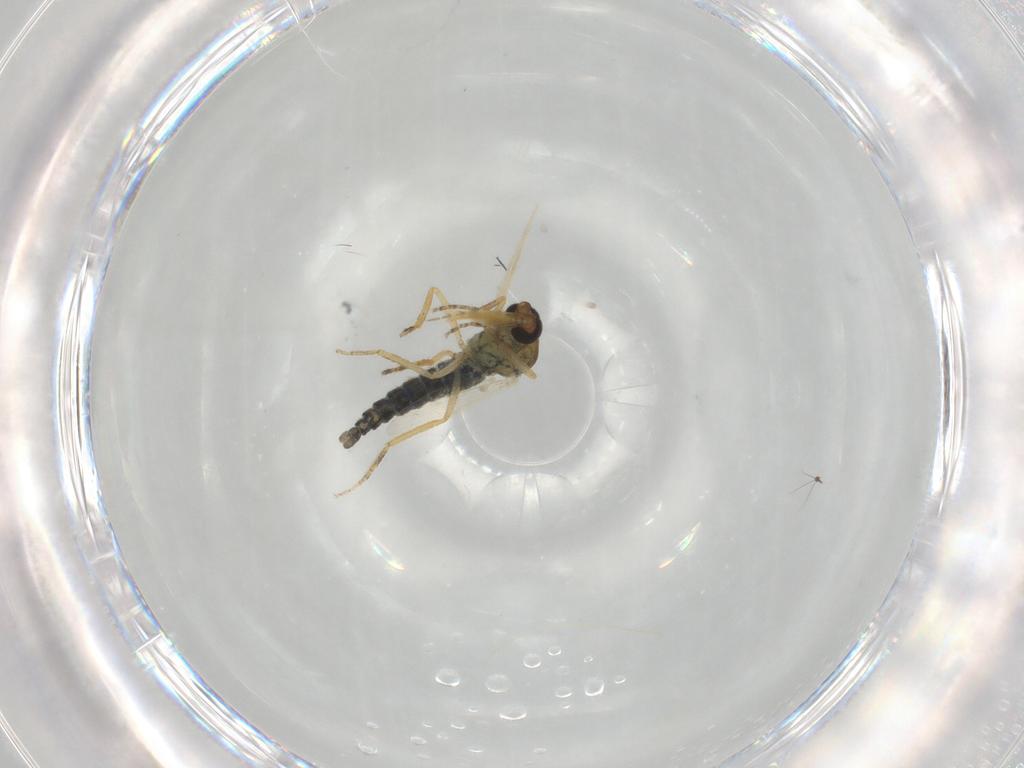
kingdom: Animalia
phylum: Arthropoda
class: Insecta
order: Diptera
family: Ceratopogonidae
